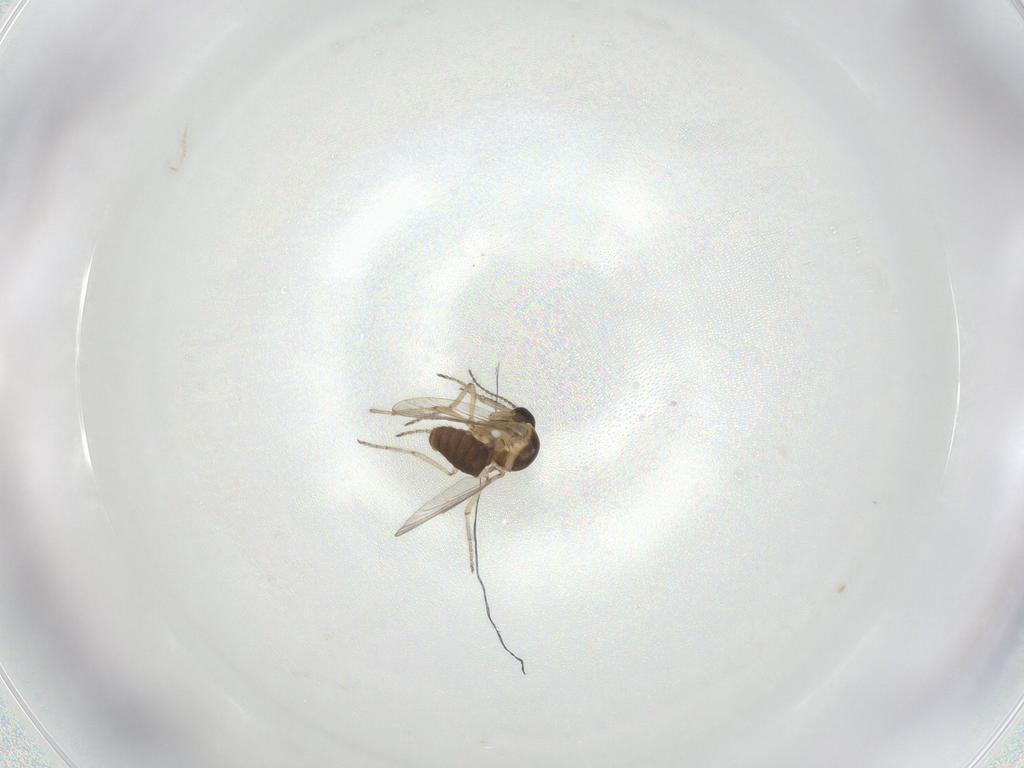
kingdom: Animalia
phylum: Arthropoda
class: Insecta
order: Diptera
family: Ceratopogonidae
